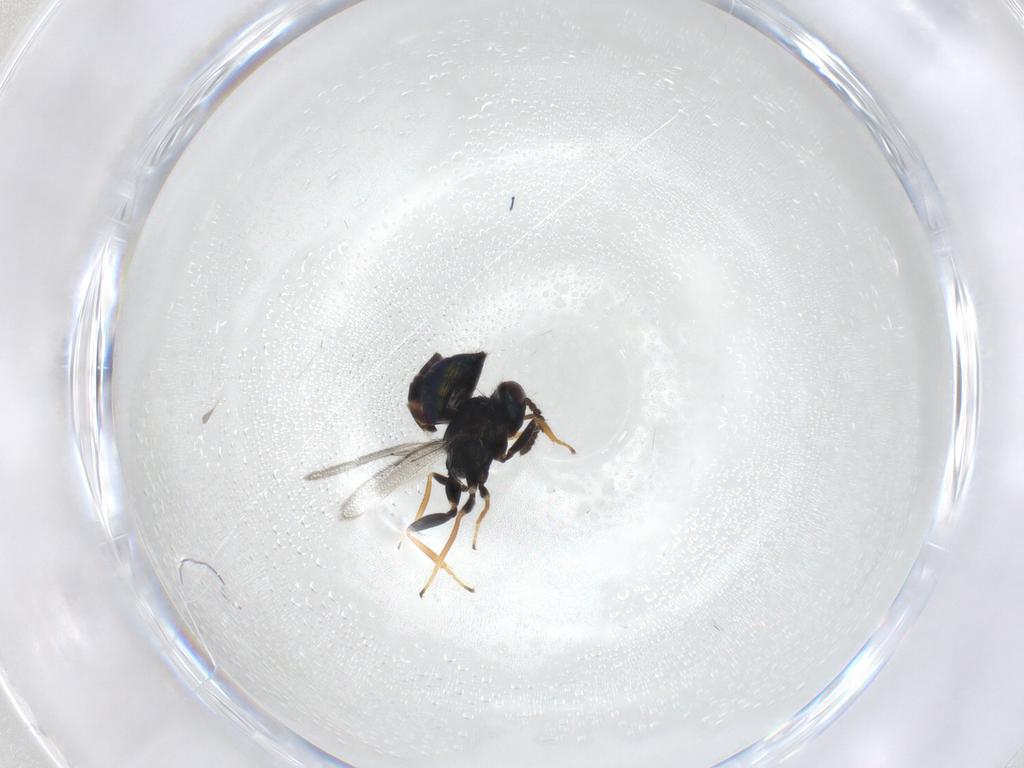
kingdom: Animalia
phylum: Arthropoda
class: Insecta
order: Hymenoptera
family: Eulophidae
